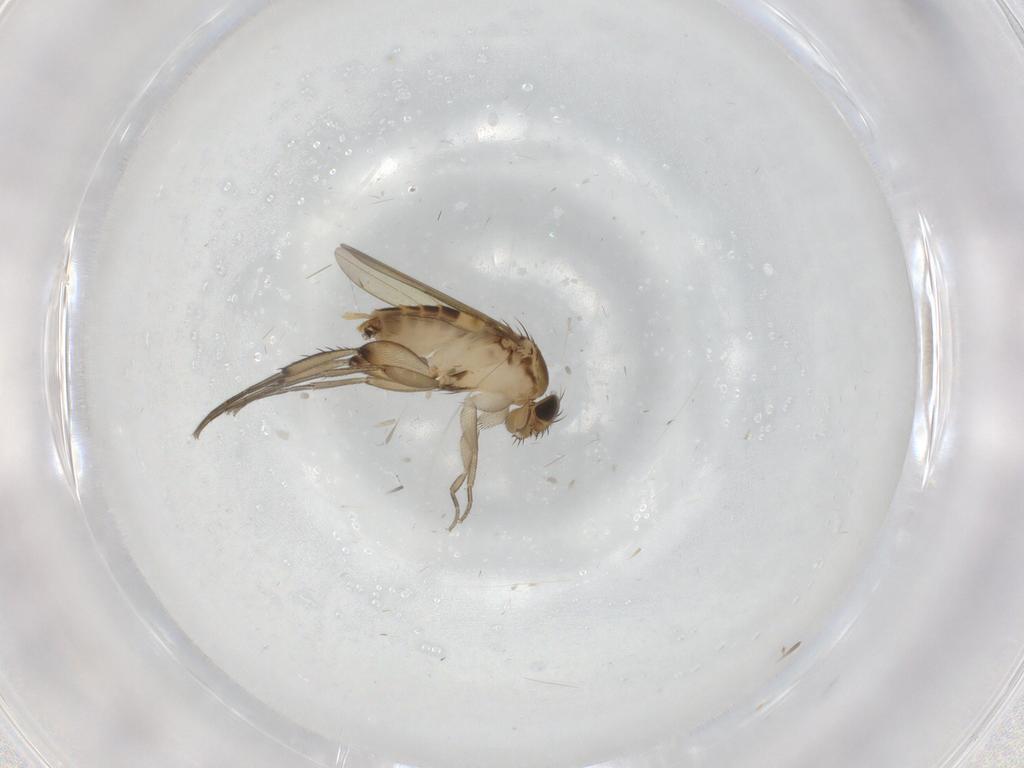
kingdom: Animalia
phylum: Arthropoda
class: Insecta
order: Diptera
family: Phoridae
